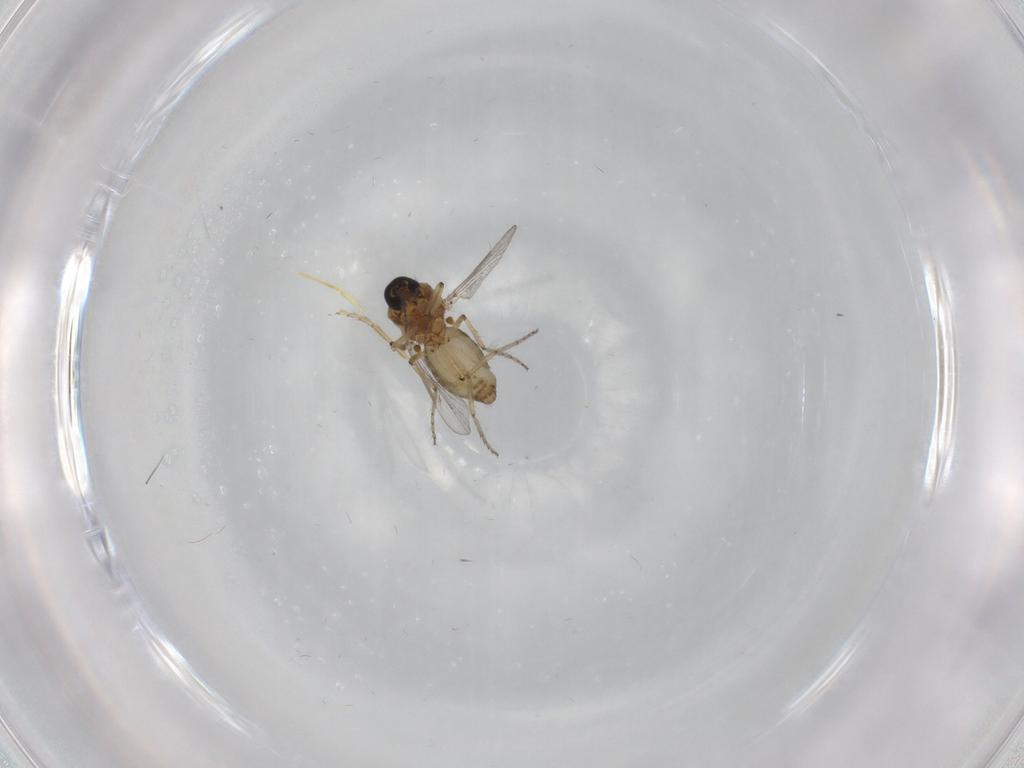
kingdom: Animalia
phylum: Arthropoda
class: Insecta
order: Diptera
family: Ceratopogonidae
